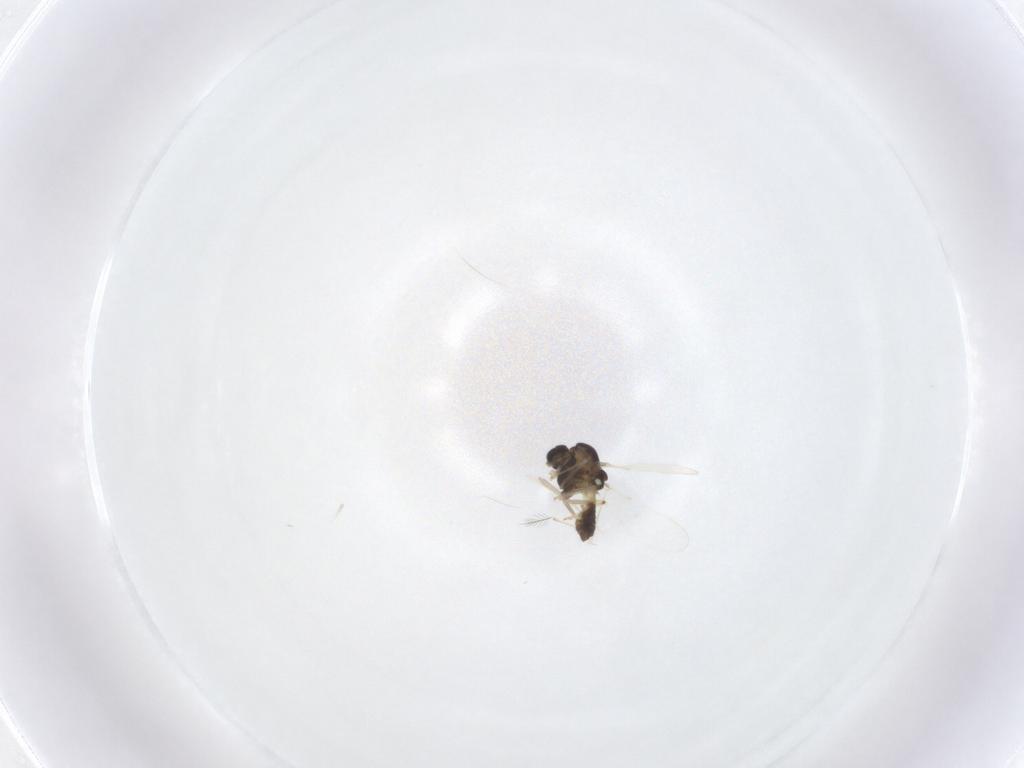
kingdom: Animalia
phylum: Arthropoda
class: Insecta
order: Diptera
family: Chironomidae
